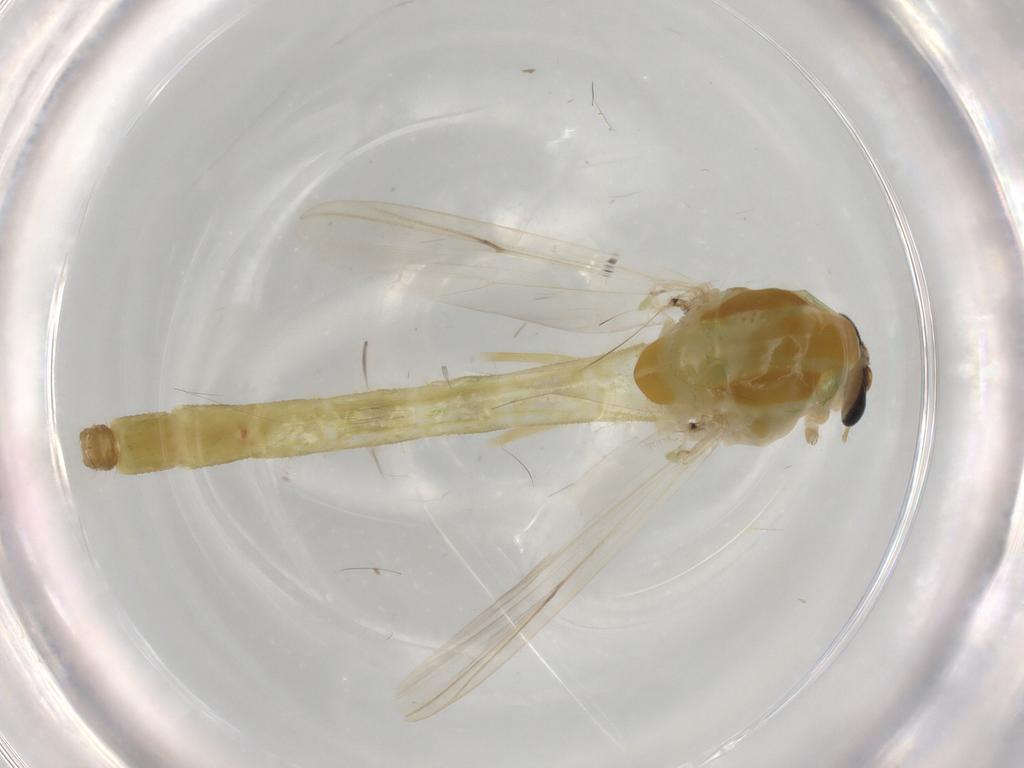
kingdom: Animalia
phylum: Arthropoda
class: Insecta
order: Diptera
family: Chironomidae
